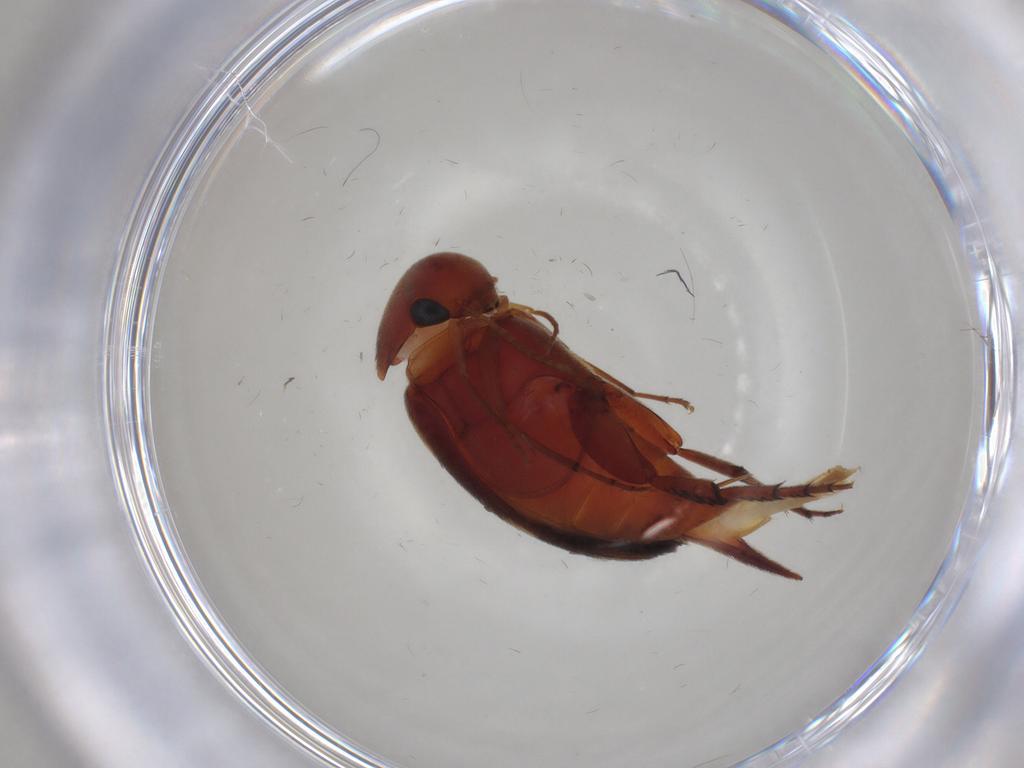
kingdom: Animalia
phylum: Arthropoda
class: Insecta
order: Coleoptera
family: Mordellidae
